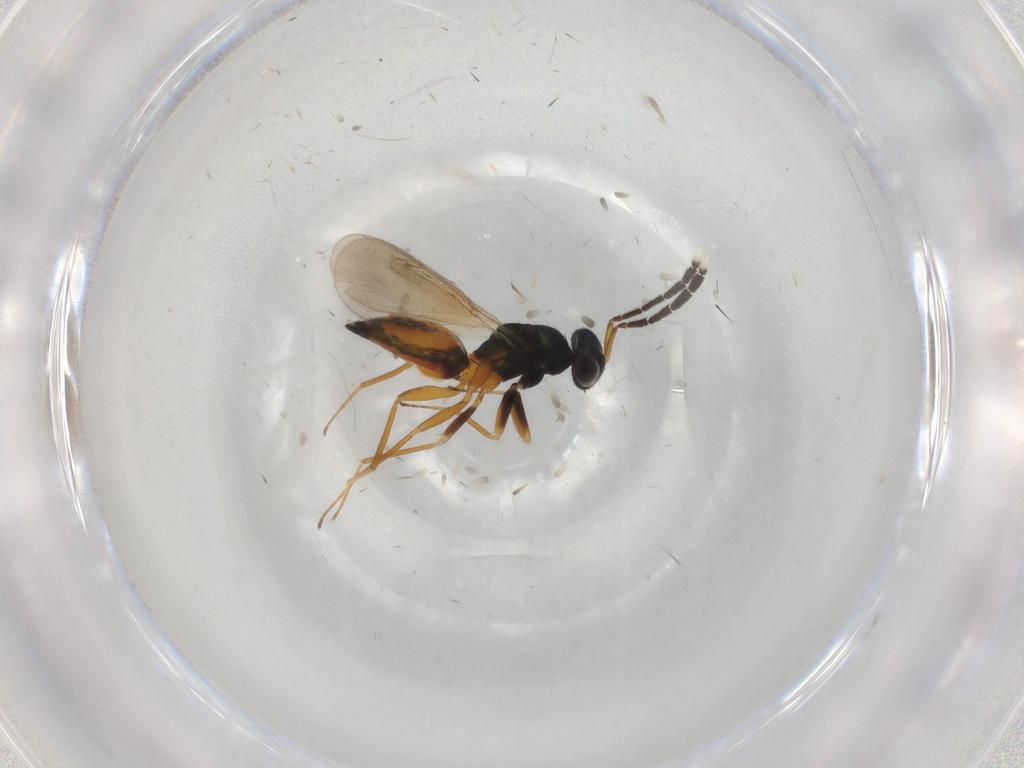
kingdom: Animalia
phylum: Arthropoda
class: Insecta
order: Hymenoptera
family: Eulophidae
